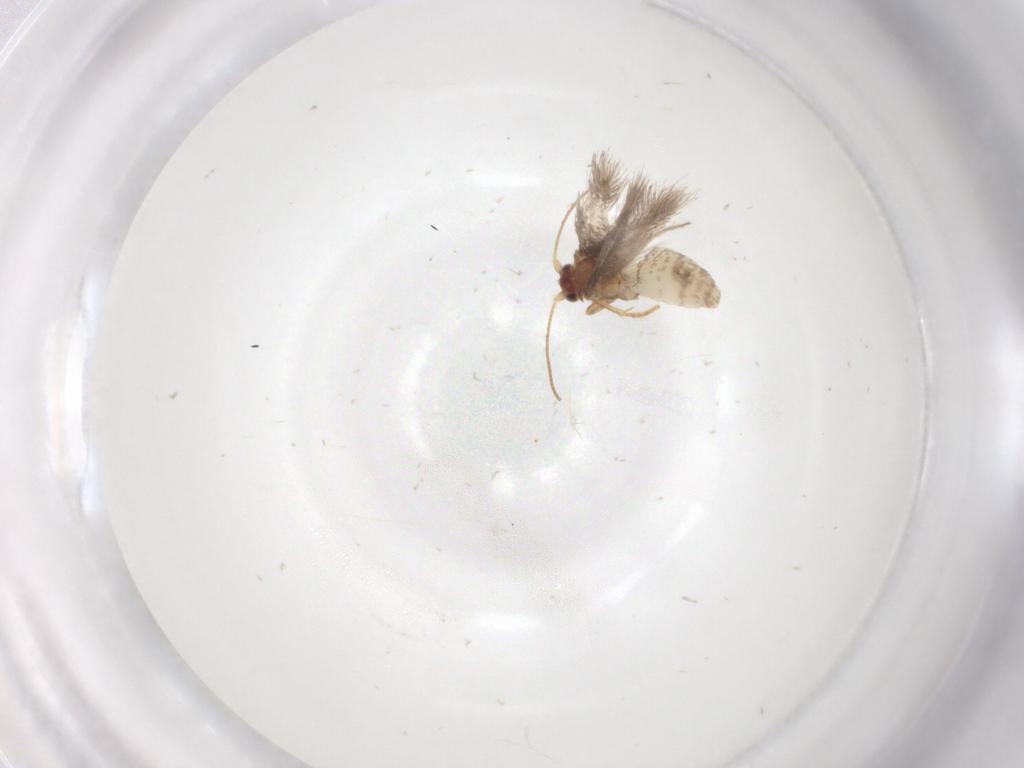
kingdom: Animalia
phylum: Arthropoda
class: Insecta
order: Lepidoptera
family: Nepticulidae
